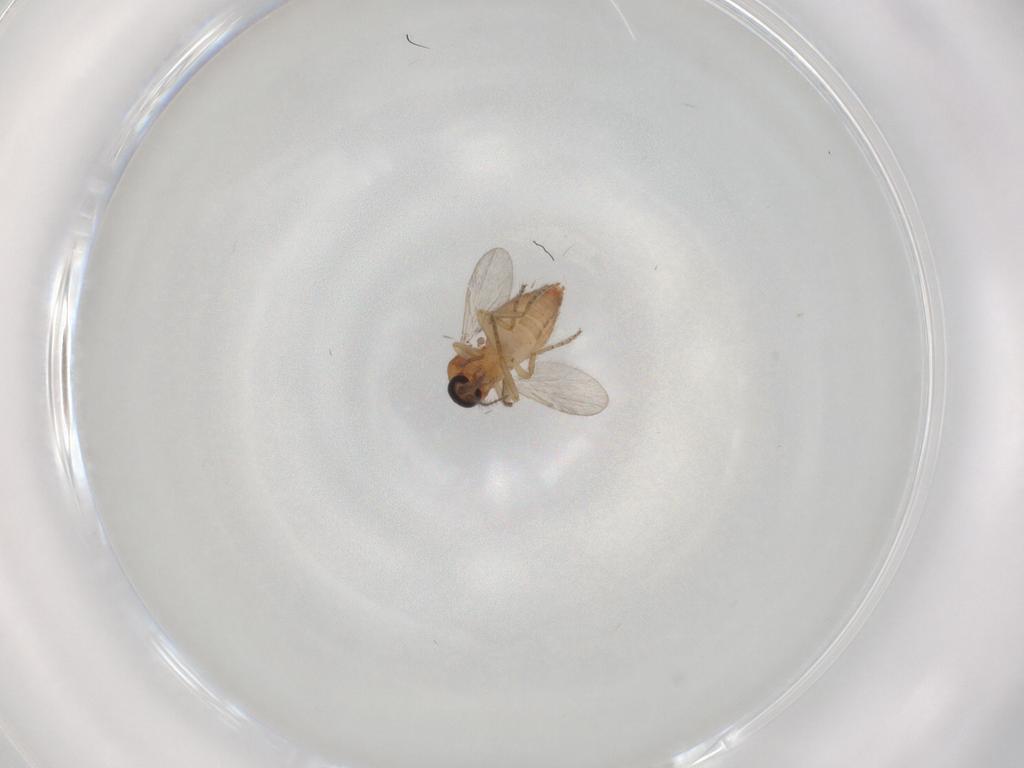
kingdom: Animalia
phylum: Arthropoda
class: Insecta
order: Diptera
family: Ceratopogonidae
